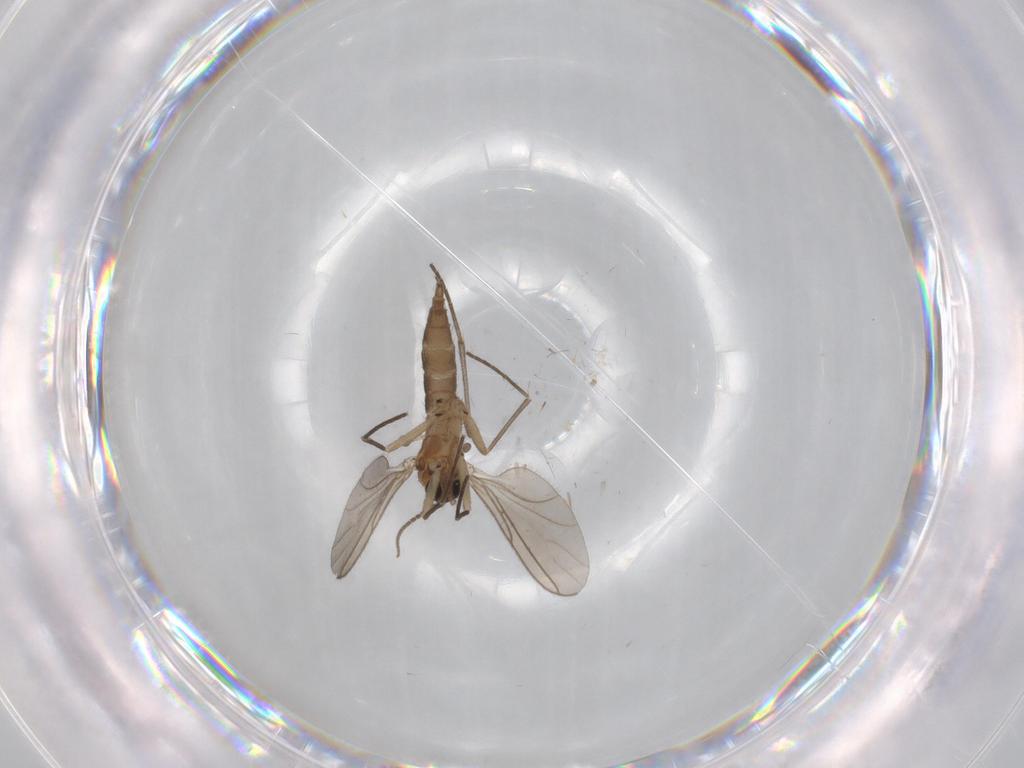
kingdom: Animalia
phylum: Arthropoda
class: Insecta
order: Diptera
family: Sciaridae
